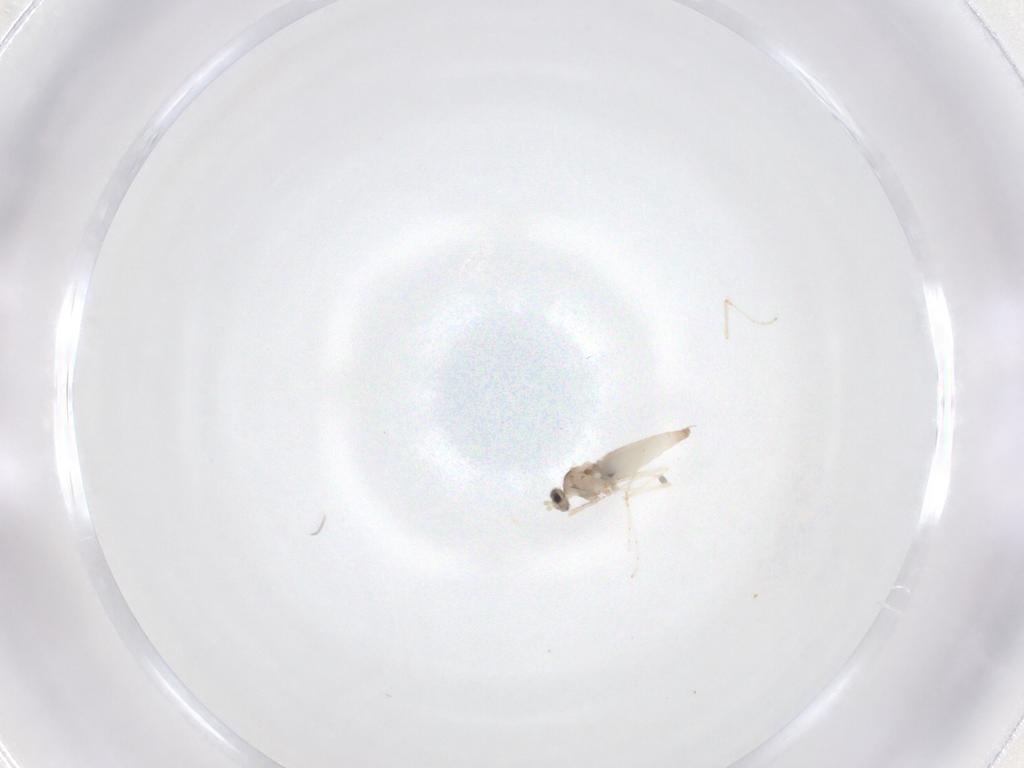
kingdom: Animalia
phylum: Arthropoda
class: Insecta
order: Diptera
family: Cecidomyiidae
